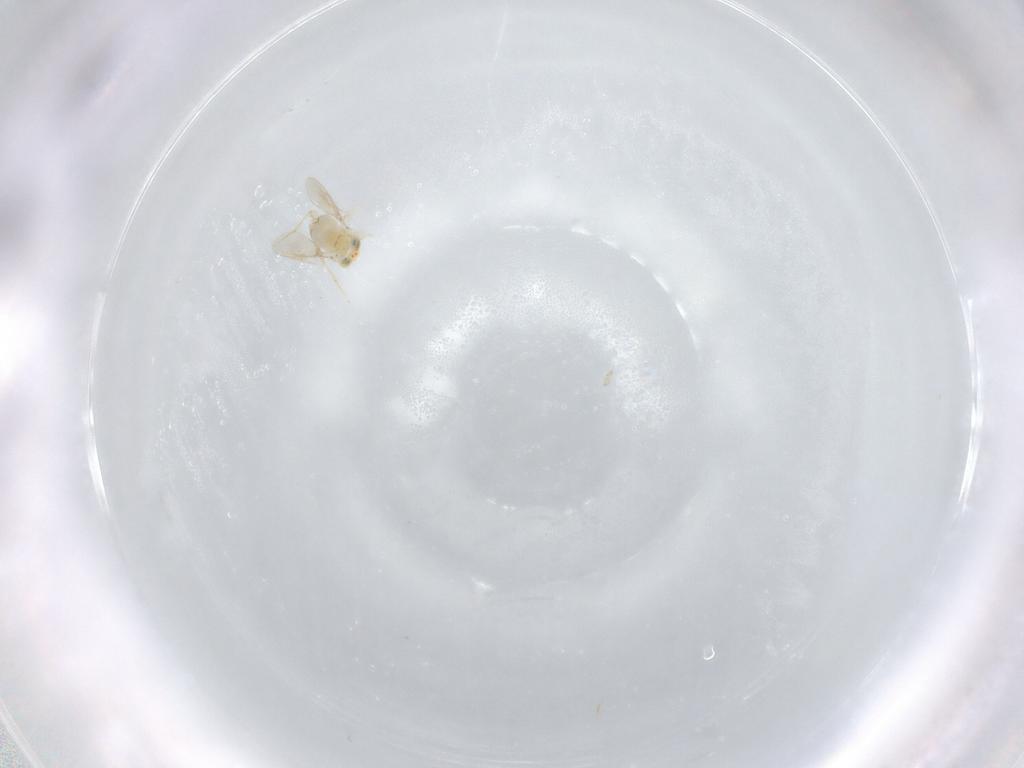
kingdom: Animalia
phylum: Arthropoda
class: Insecta
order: Hymenoptera
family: Aphelinidae
